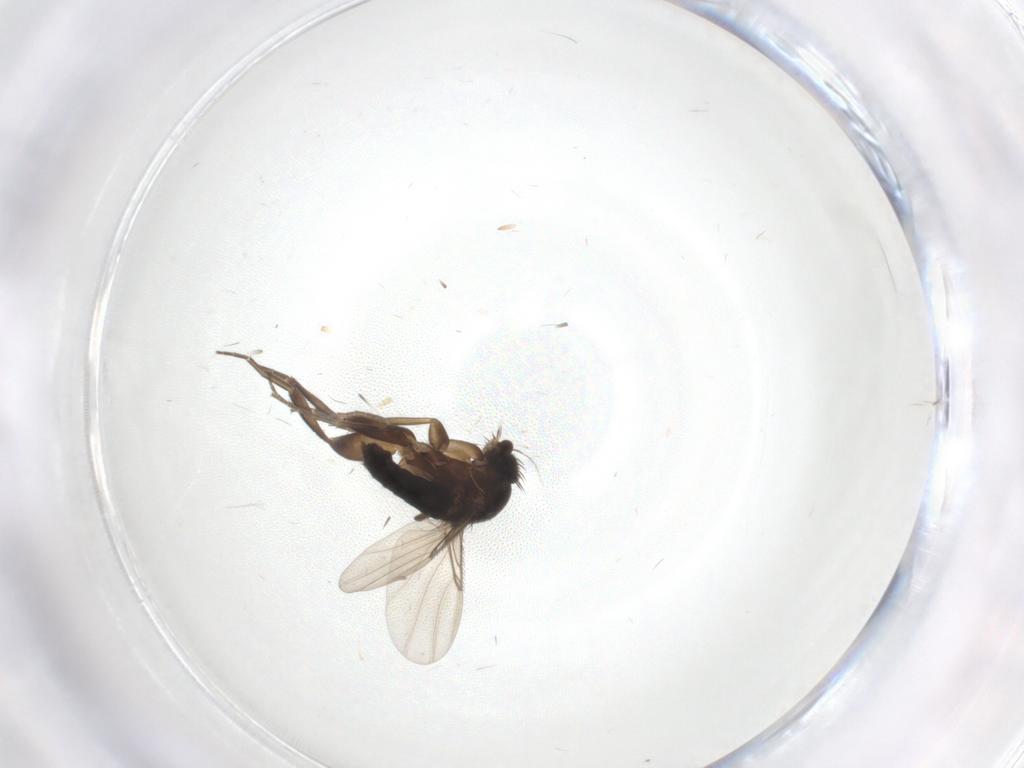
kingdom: Animalia
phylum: Arthropoda
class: Insecta
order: Diptera
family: Phoridae
